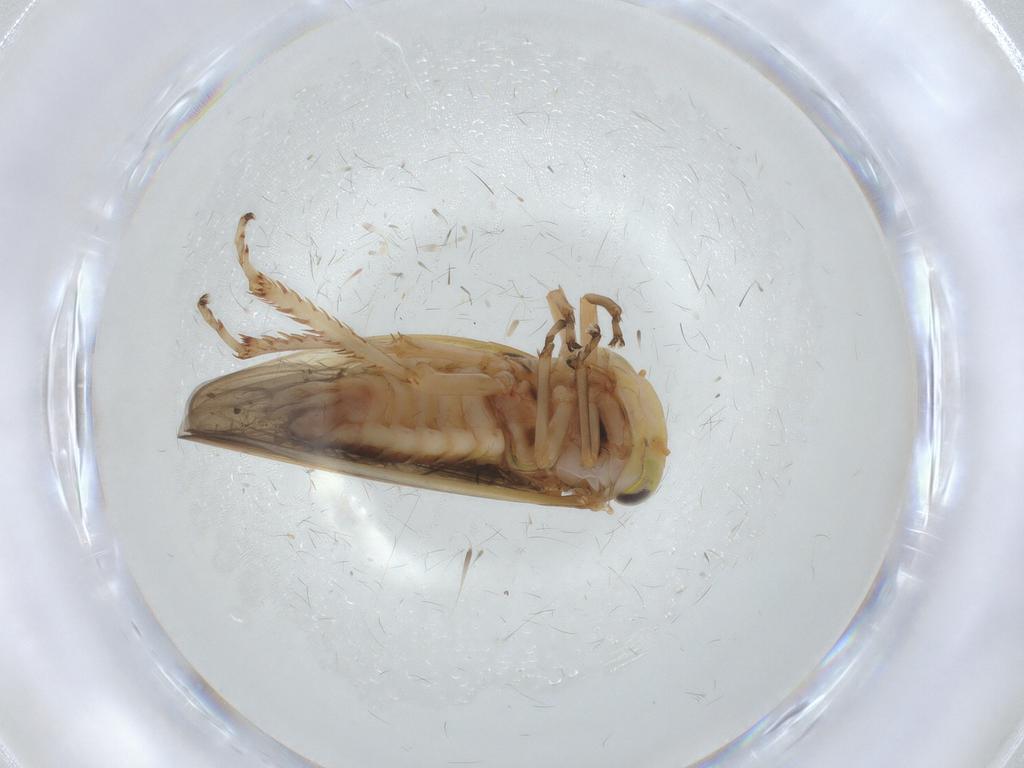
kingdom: Animalia
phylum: Arthropoda
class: Insecta
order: Hemiptera
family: Cicadellidae
